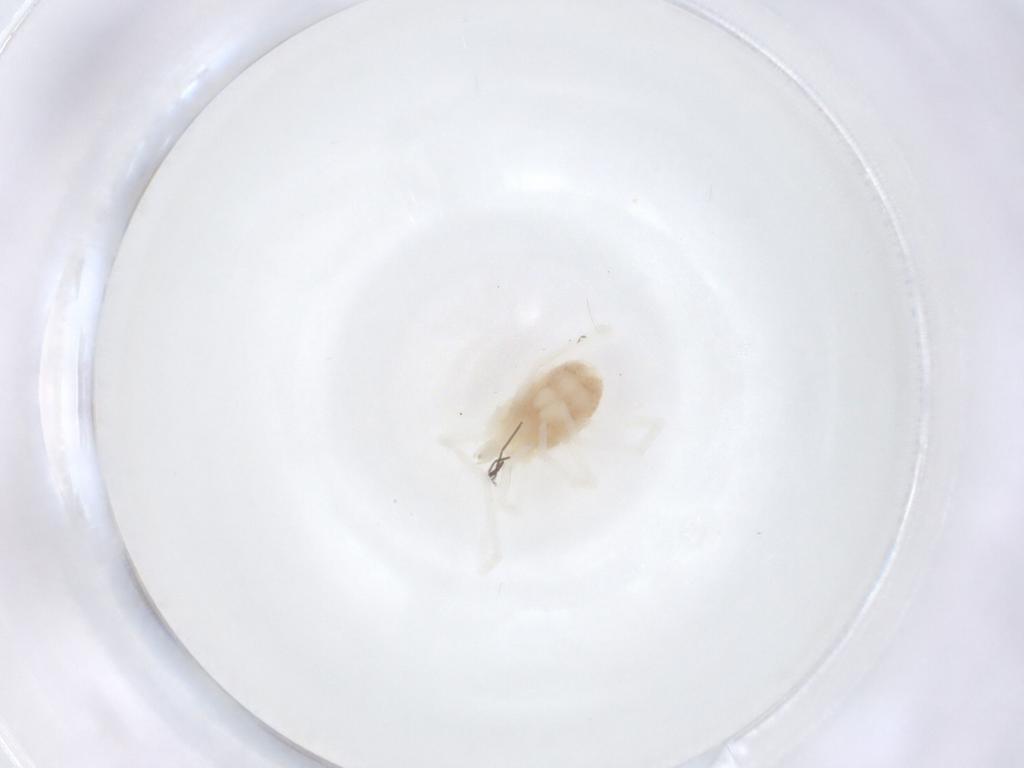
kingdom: Animalia
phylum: Arthropoda
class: Arachnida
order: Trombidiformes
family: Teneriffiidae
